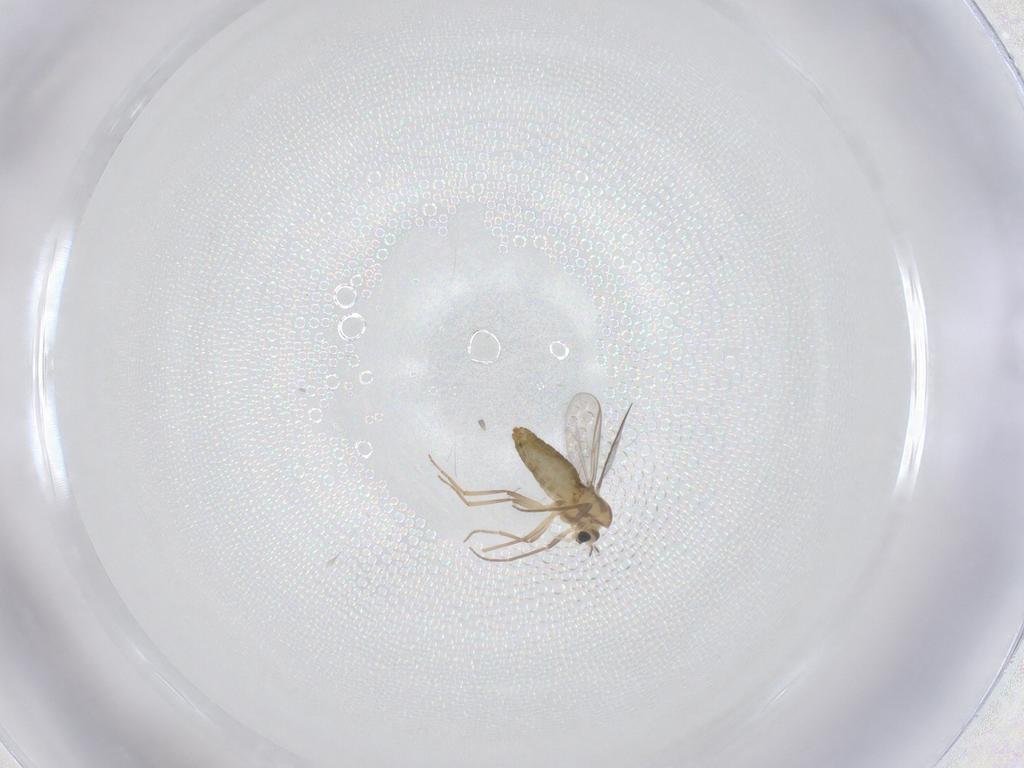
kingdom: Animalia
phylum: Arthropoda
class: Insecta
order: Diptera
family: Chironomidae
